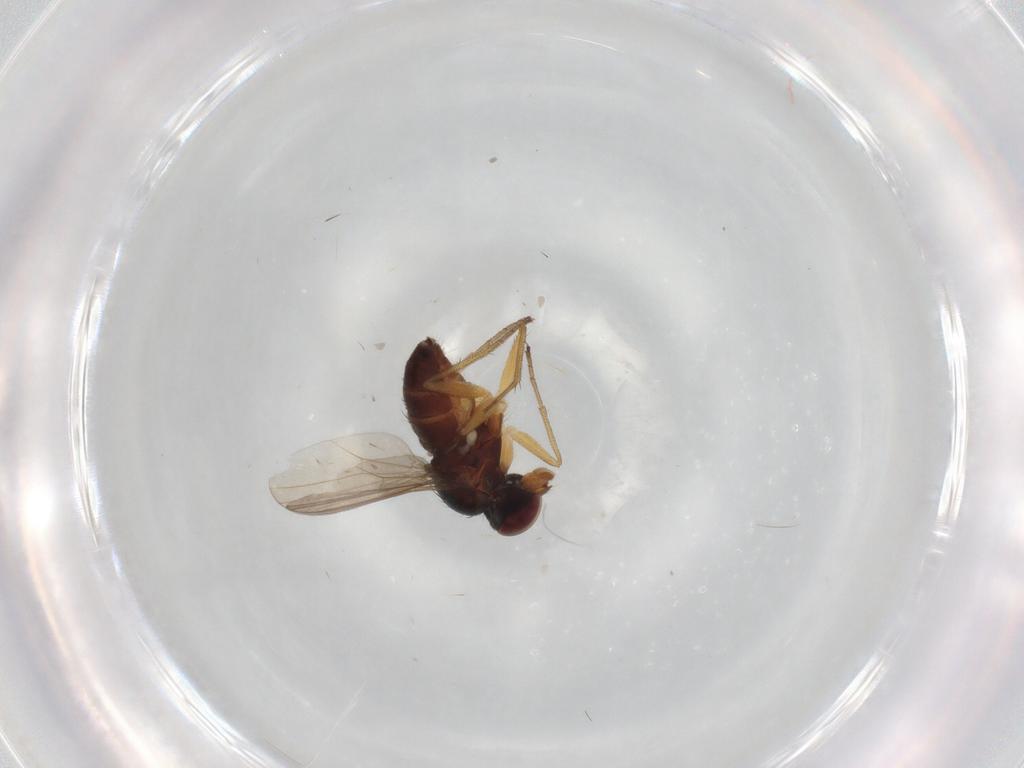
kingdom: Animalia
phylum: Arthropoda
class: Insecta
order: Diptera
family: Dolichopodidae
